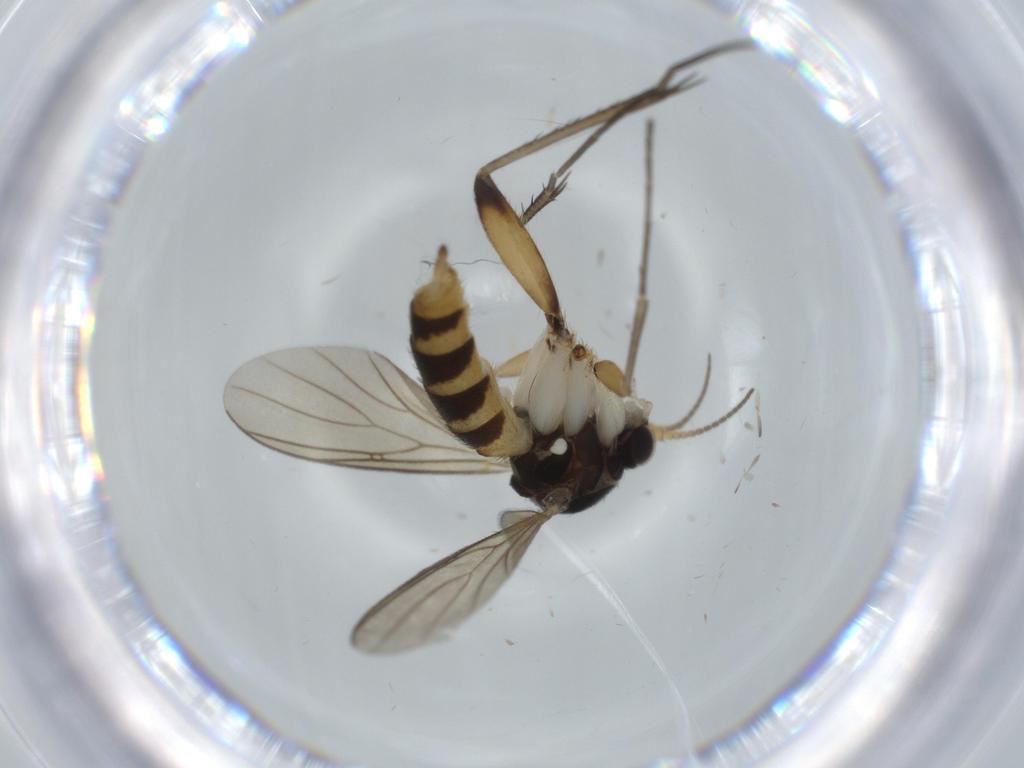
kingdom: Animalia
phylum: Arthropoda
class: Insecta
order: Diptera
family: Mycetophilidae
